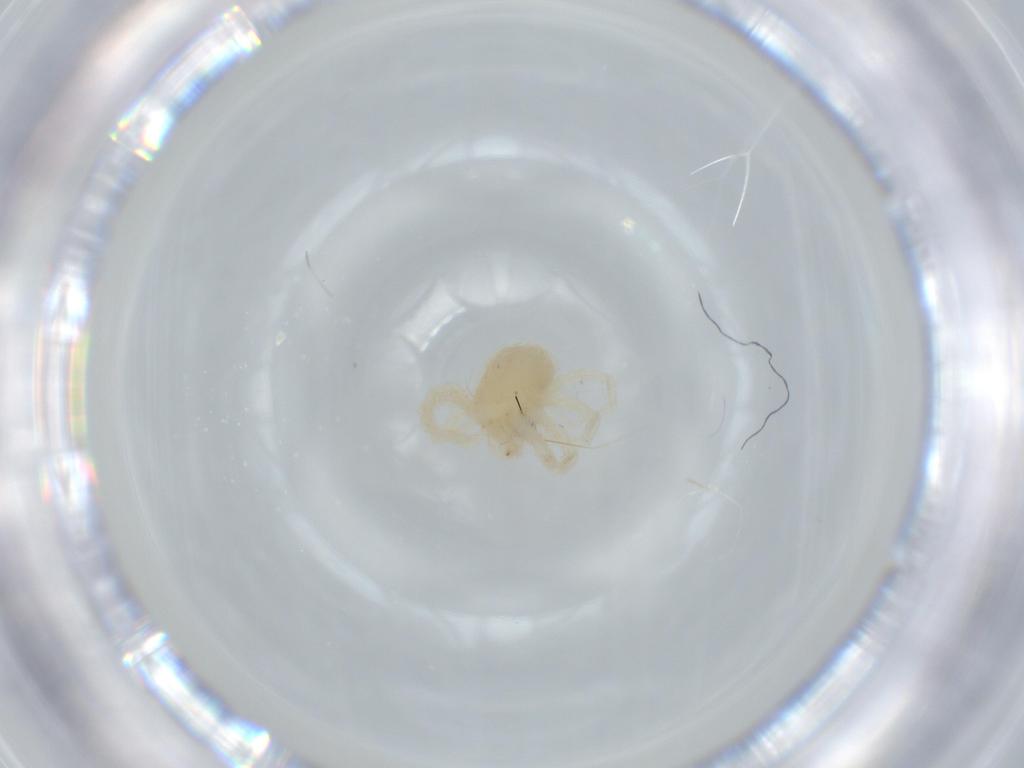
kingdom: Animalia
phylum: Arthropoda
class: Arachnida
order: Trombidiformes
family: Anystidae
